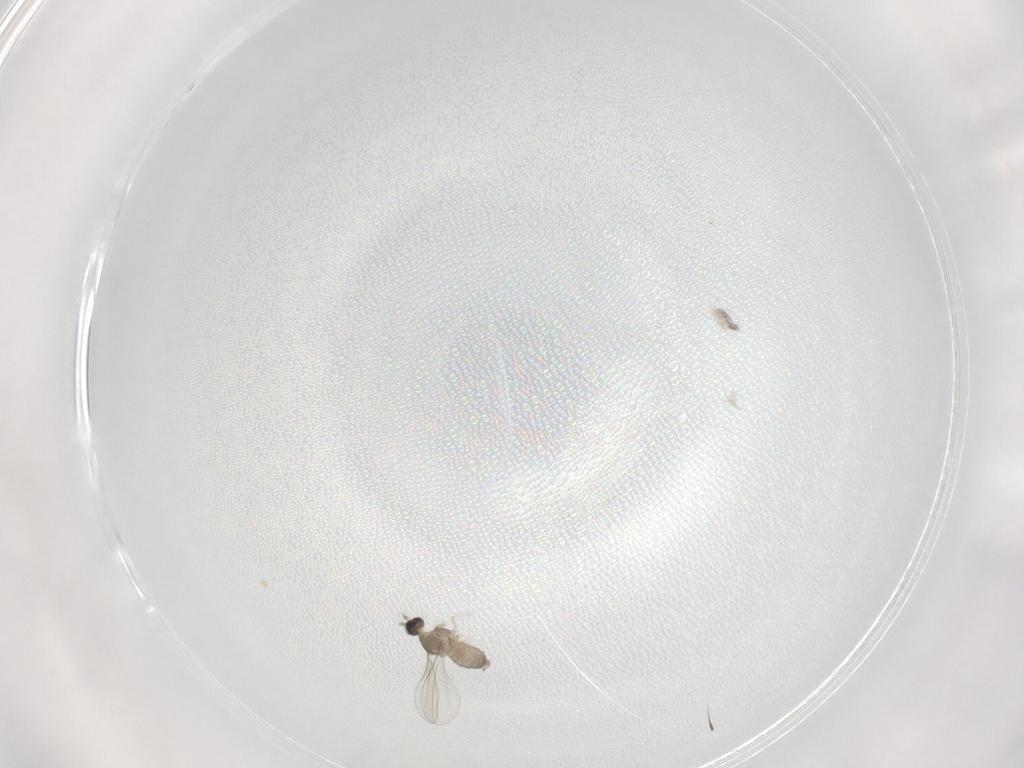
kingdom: Animalia
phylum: Arthropoda
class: Insecta
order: Diptera
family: Cecidomyiidae
